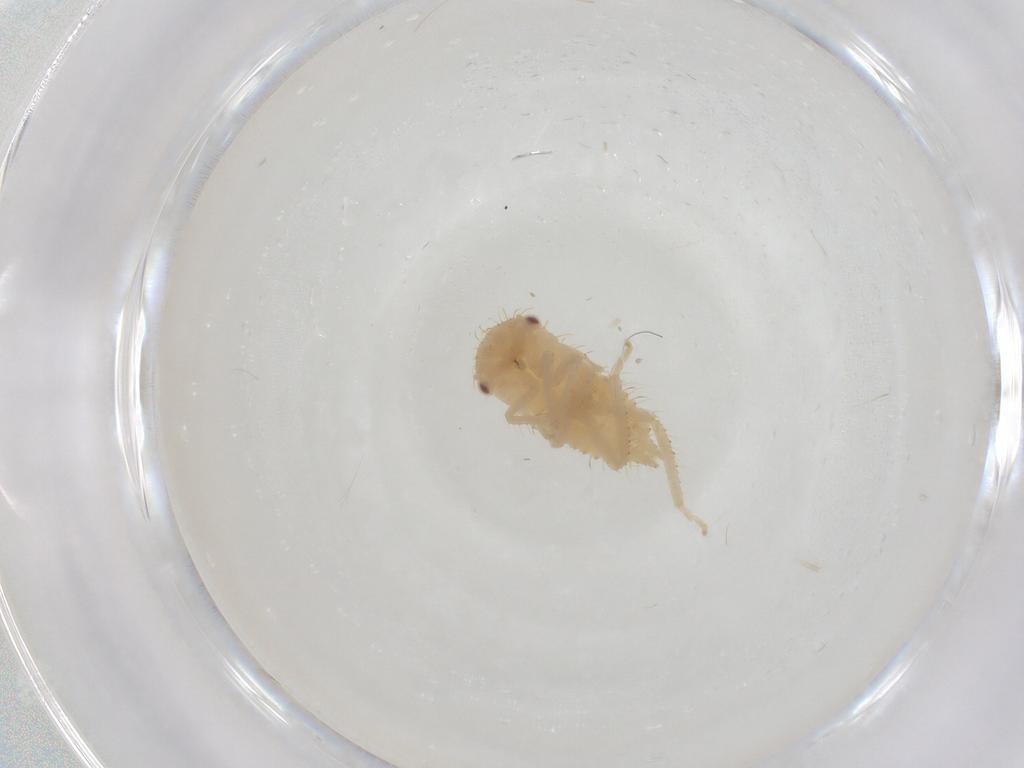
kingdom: Animalia
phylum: Arthropoda
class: Insecta
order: Hemiptera
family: Cicadellidae
